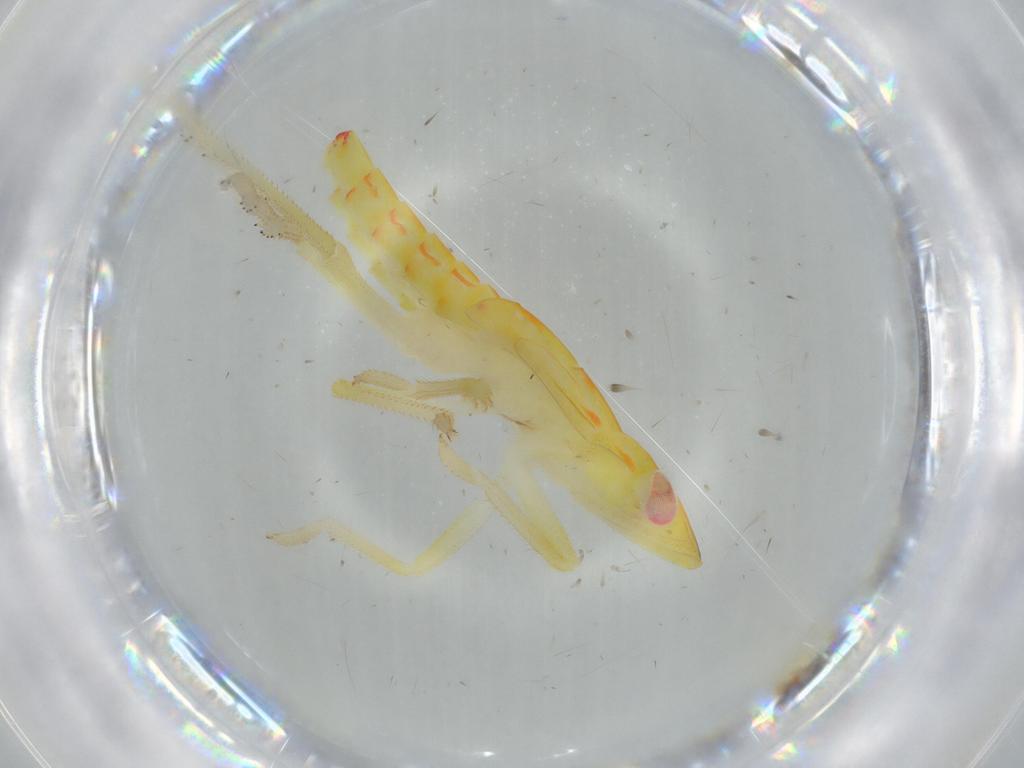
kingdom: Animalia
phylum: Arthropoda
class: Insecta
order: Hemiptera
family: Tropiduchidae
